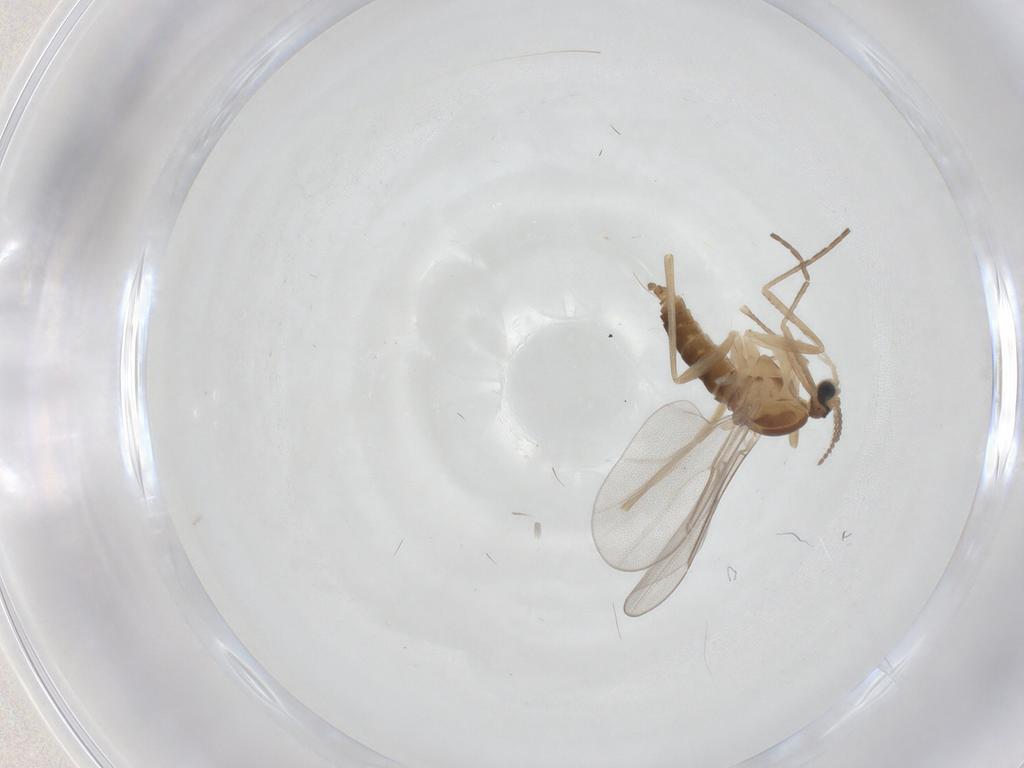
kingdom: Animalia
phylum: Arthropoda
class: Insecta
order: Diptera
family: Cecidomyiidae
